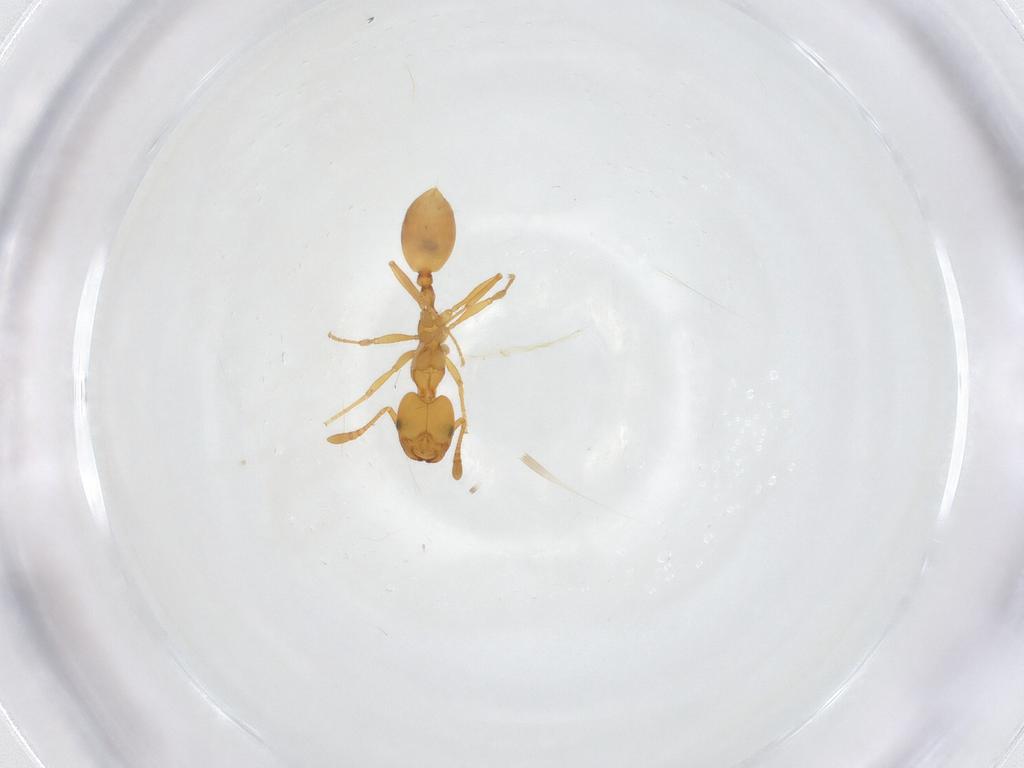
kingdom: Animalia
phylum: Arthropoda
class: Insecta
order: Hymenoptera
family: Formicidae
